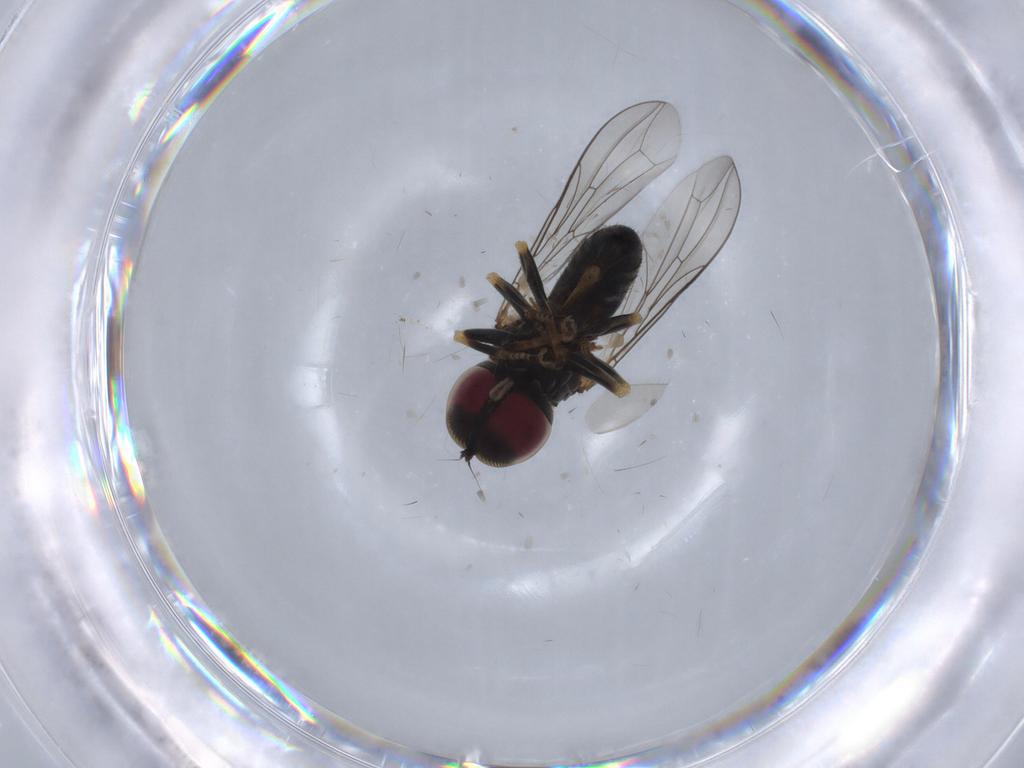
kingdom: Animalia
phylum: Arthropoda
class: Insecta
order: Diptera
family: Pipunculidae
